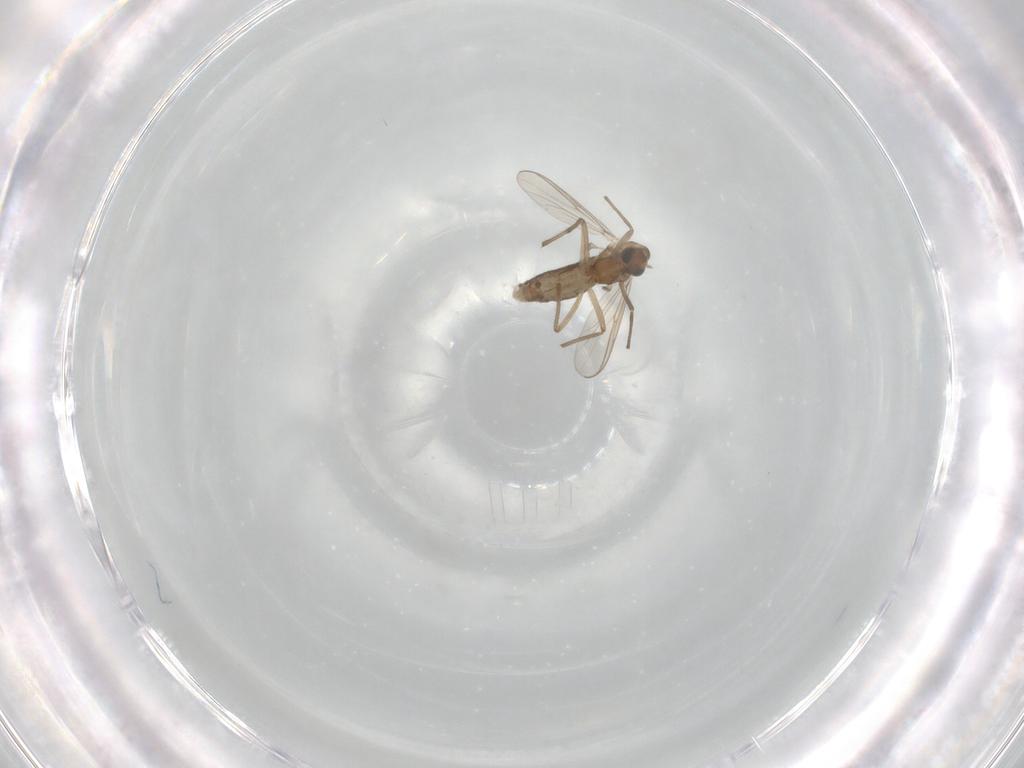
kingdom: Animalia
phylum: Arthropoda
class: Insecta
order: Diptera
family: Chironomidae
